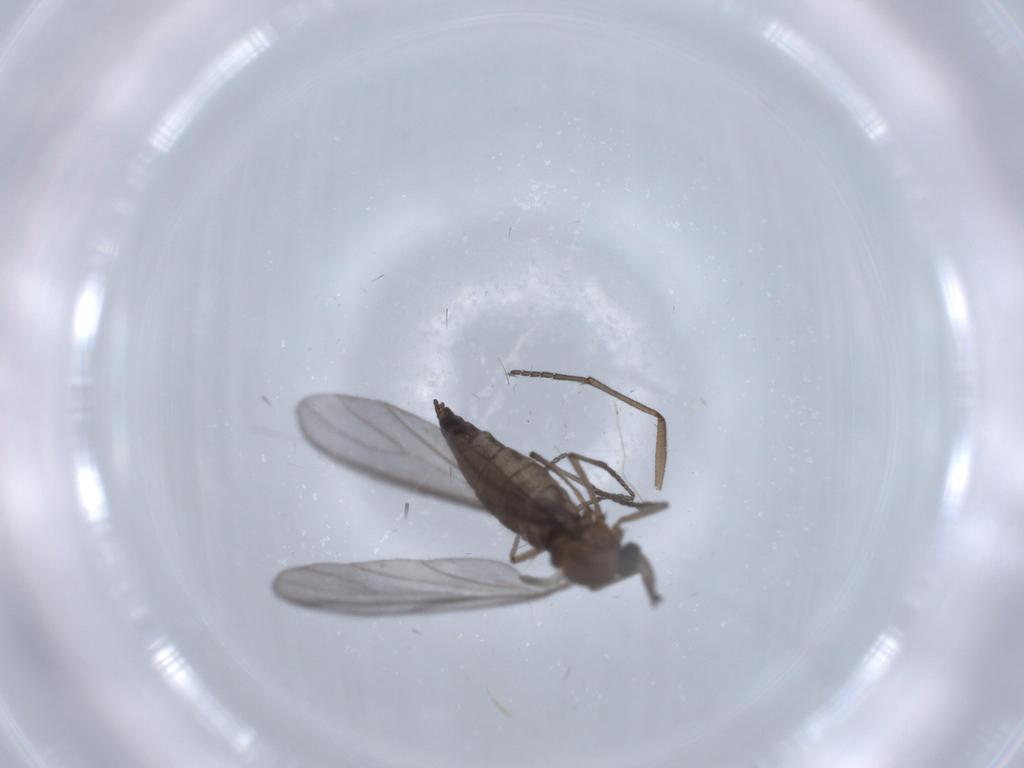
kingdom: Animalia
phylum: Arthropoda
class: Insecta
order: Diptera
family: Sciaridae
